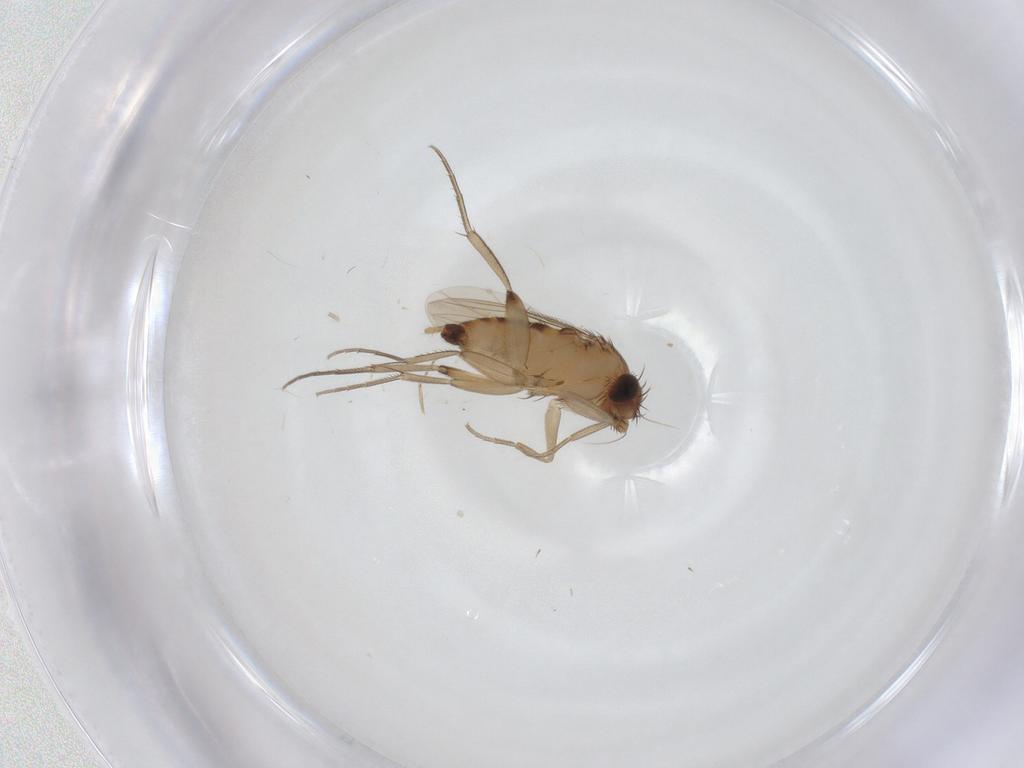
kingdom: Animalia
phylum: Arthropoda
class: Insecta
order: Diptera
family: Phoridae
